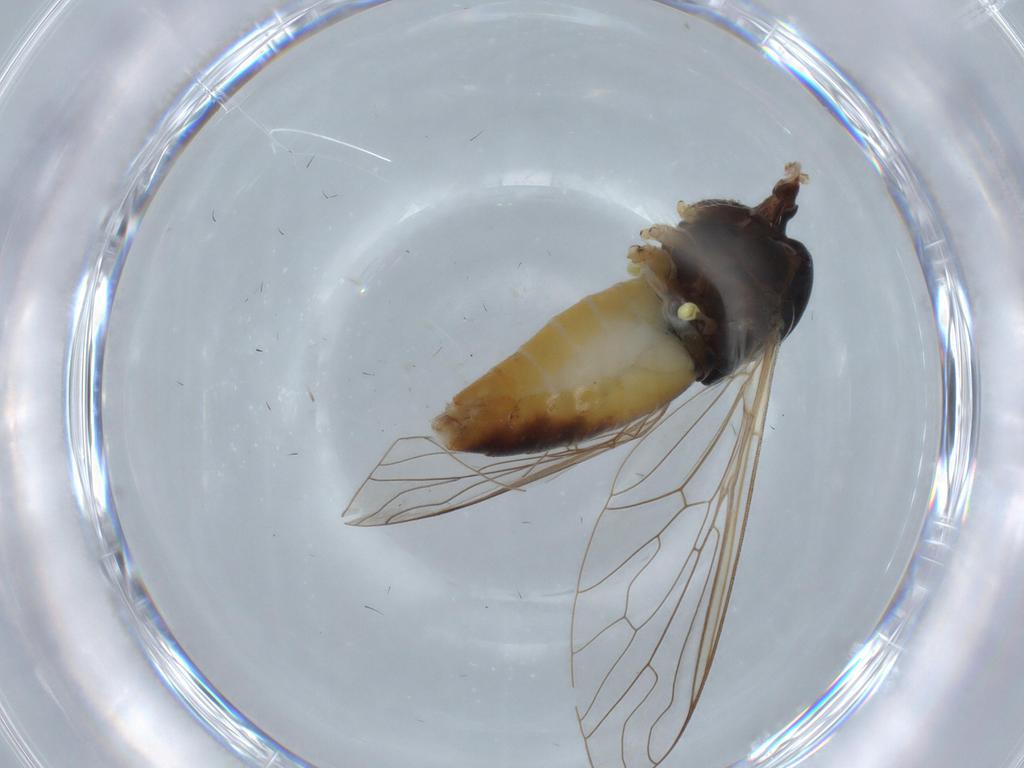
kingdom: Animalia
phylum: Arthropoda
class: Insecta
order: Diptera
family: Bombyliidae
